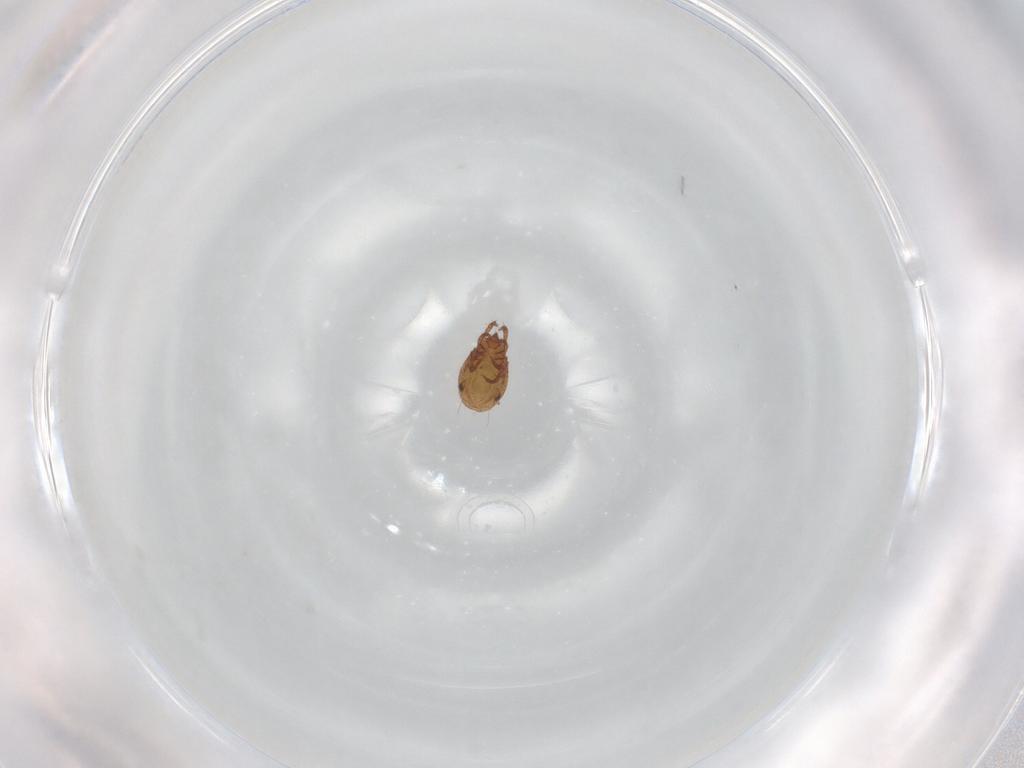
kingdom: Animalia
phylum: Arthropoda
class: Arachnida
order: Sarcoptiformes
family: Phenopelopidae
